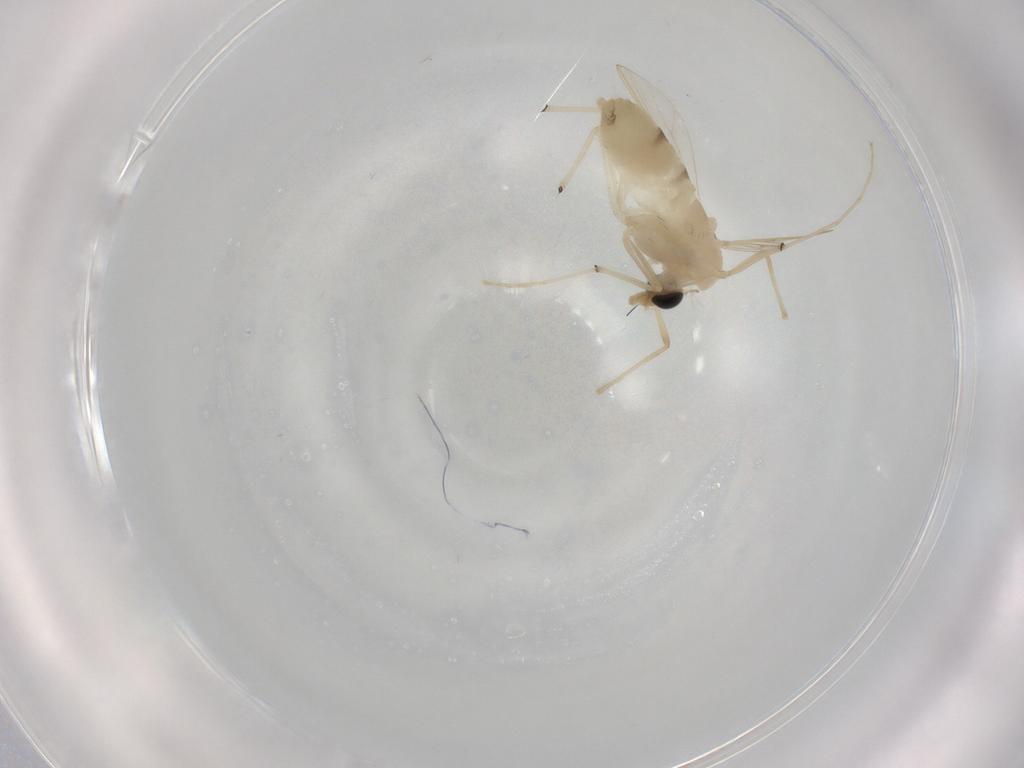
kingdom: Animalia
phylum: Arthropoda
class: Insecta
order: Diptera
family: Chironomidae
